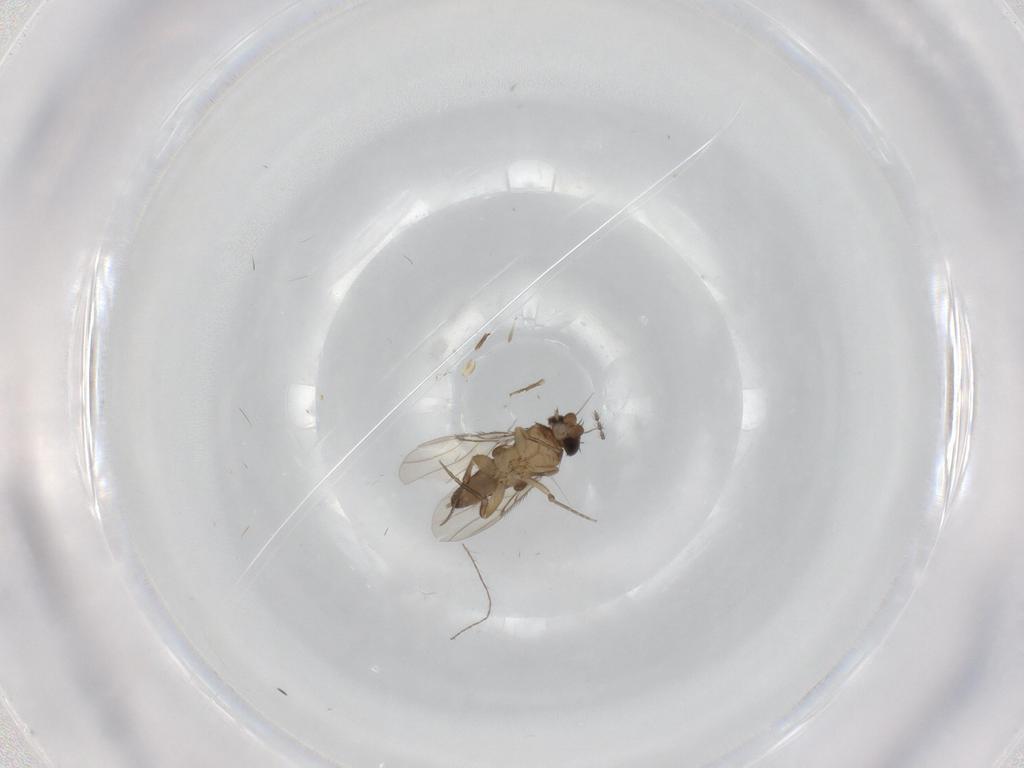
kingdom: Animalia
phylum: Arthropoda
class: Insecta
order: Diptera
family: Phoridae
